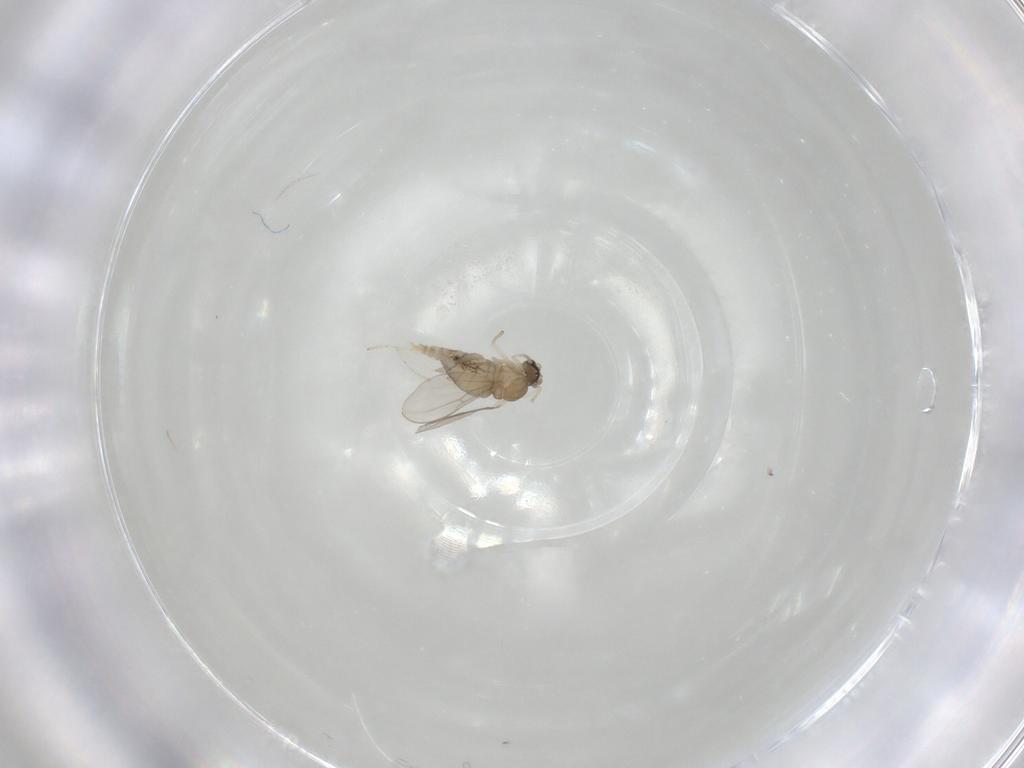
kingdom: Animalia
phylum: Arthropoda
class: Insecta
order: Diptera
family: Cecidomyiidae
